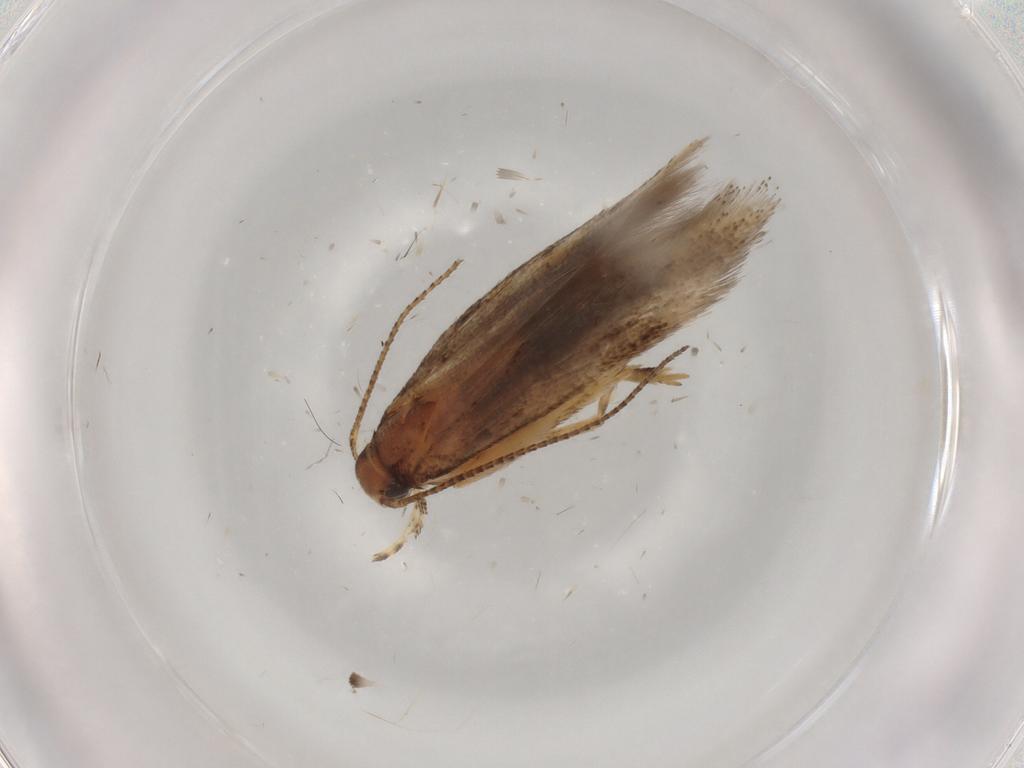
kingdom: Animalia
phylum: Arthropoda
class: Insecta
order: Lepidoptera
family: Gelechiidae
